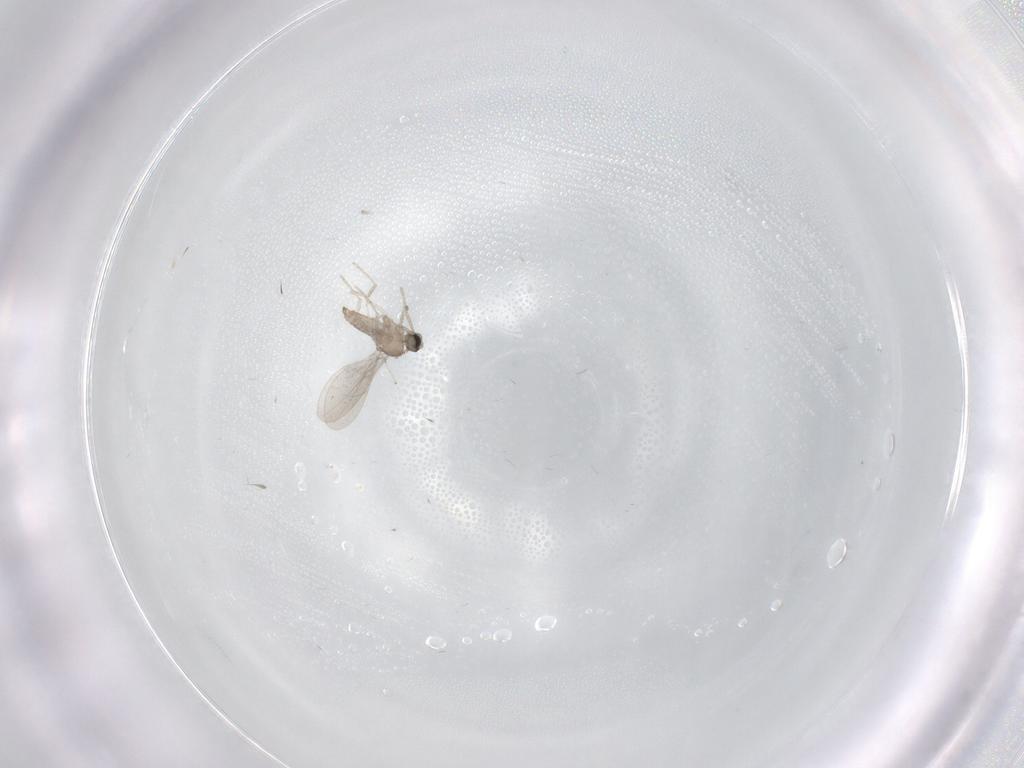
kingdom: Animalia
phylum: Arthropoda
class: Insecta
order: Diptera
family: Cecidomyiidae
